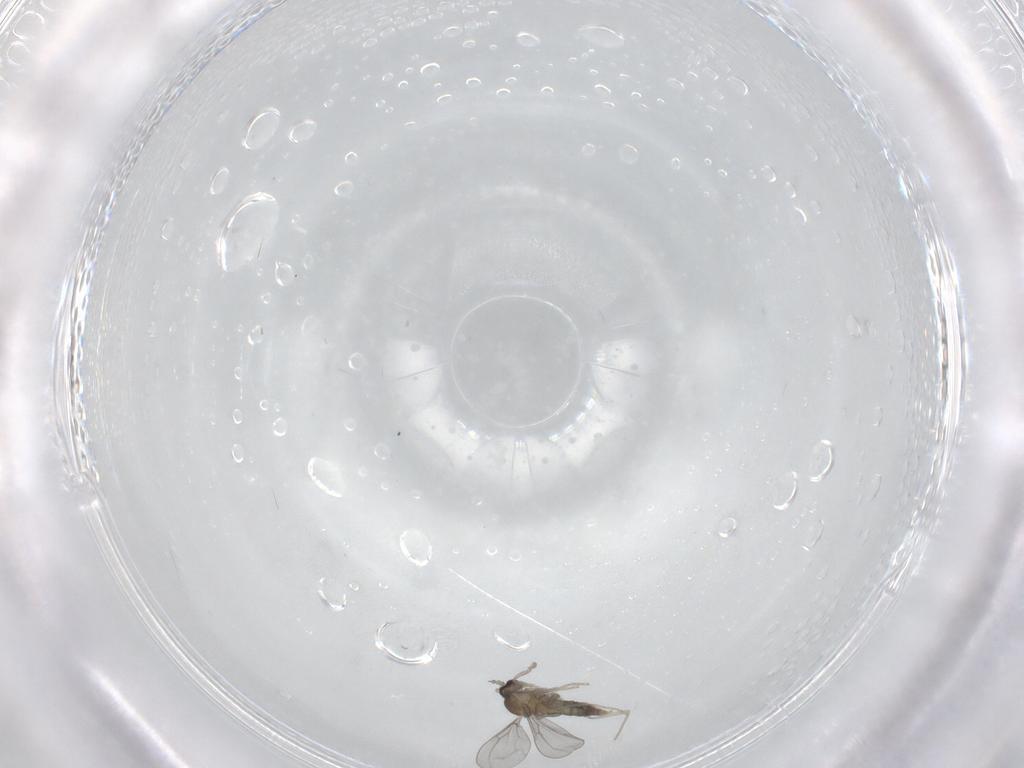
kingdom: Animalia
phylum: Arthropoda
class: Insecta
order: Diptera
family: Cecidomyiidae
